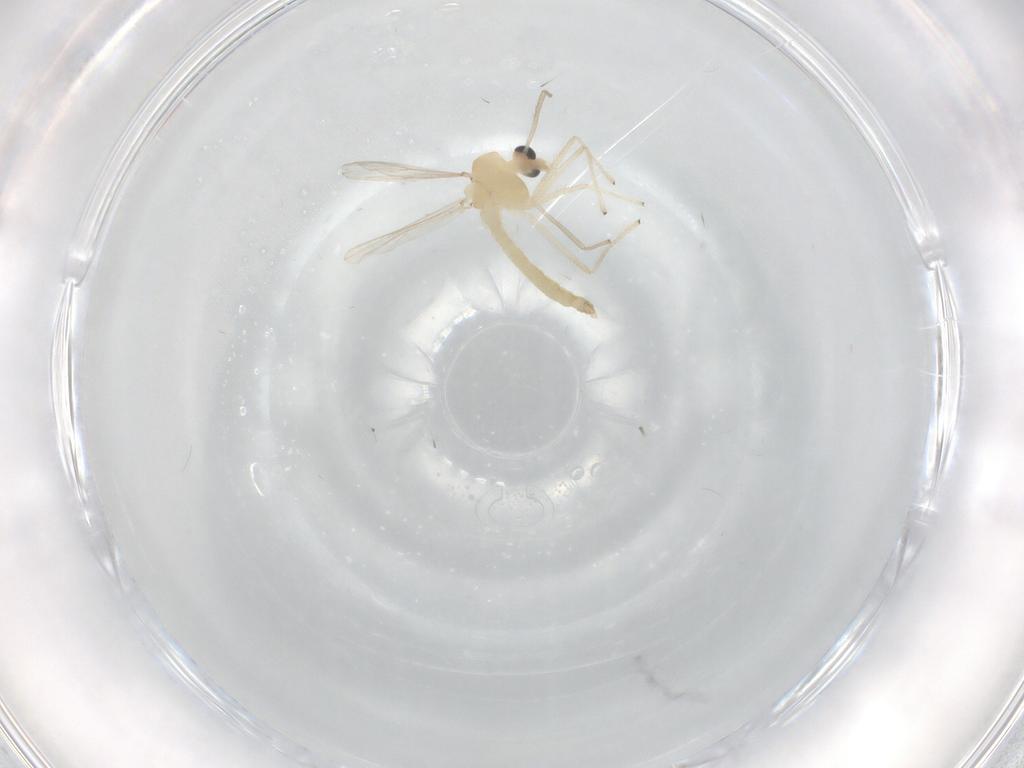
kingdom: Animalia
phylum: Arthropoda
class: Insecta
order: Diptera
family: Chironomidae
